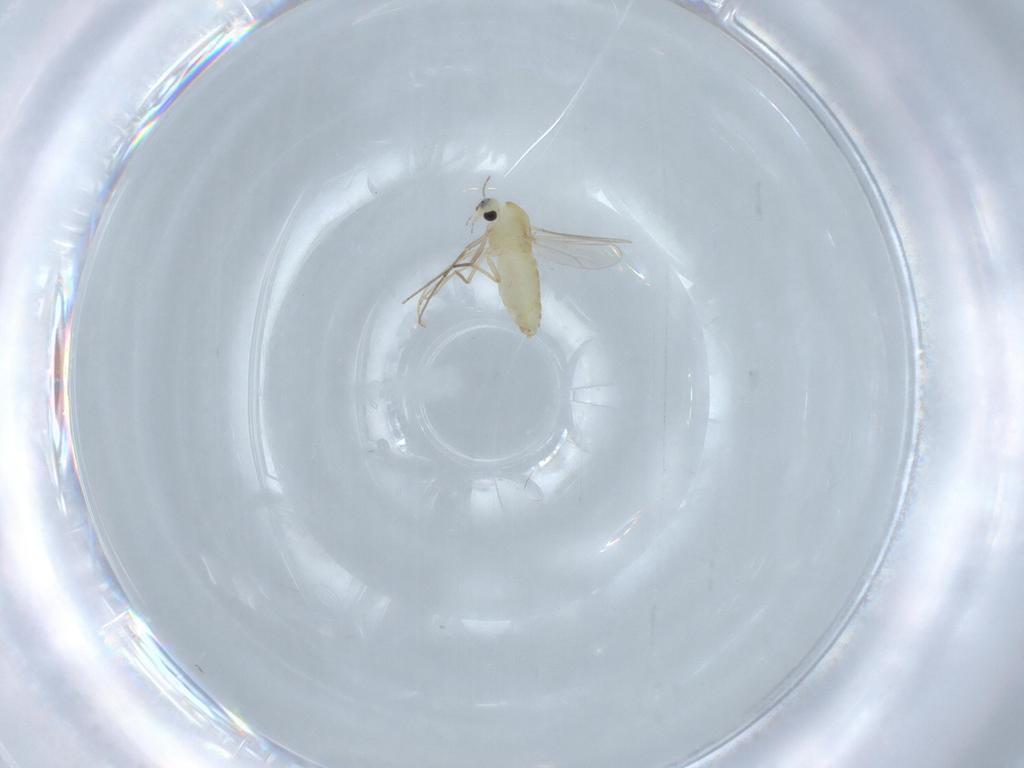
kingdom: Animalia
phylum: Arthropoda
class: Insecta
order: Diptera
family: Chironomidae
